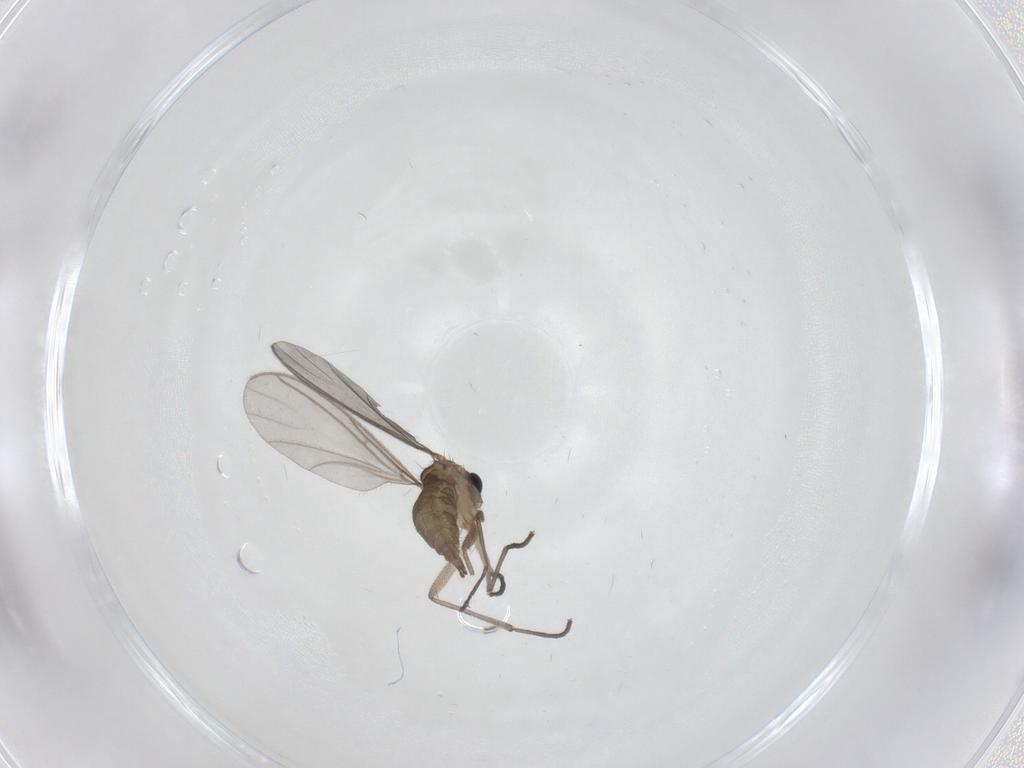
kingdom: Animalia
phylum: Arthropoda
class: Insecta
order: Diptera
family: Sciaridae
